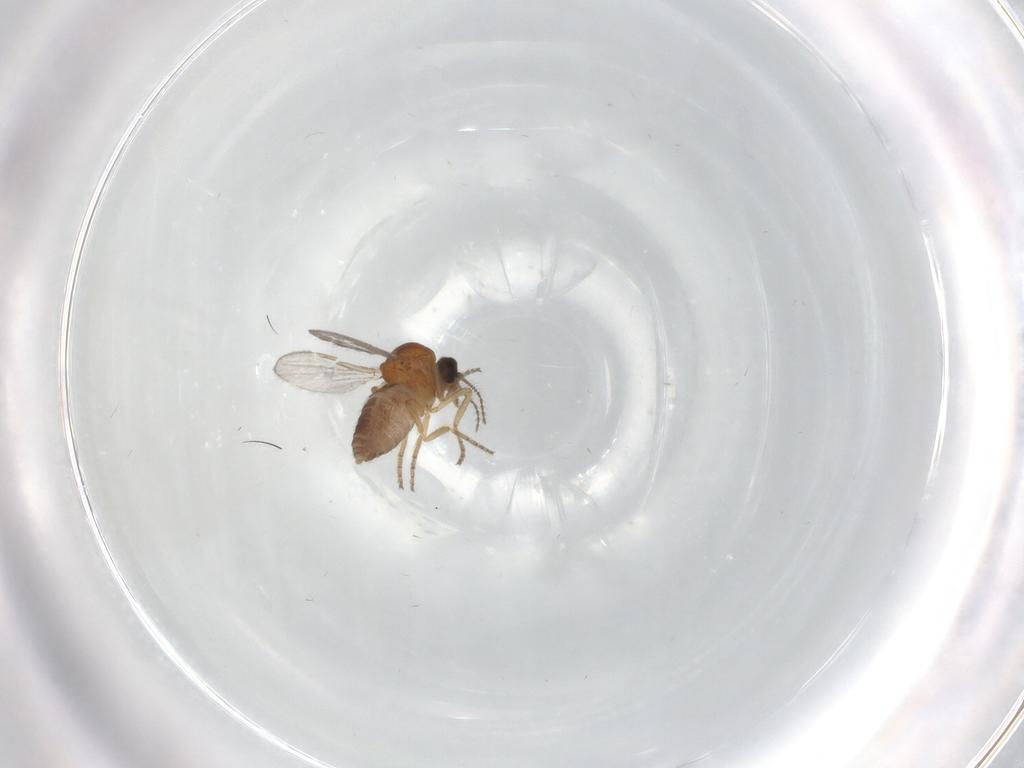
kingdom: Animalia
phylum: Arthropoda
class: Insecta
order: Diptera
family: Ceratopogonidae
